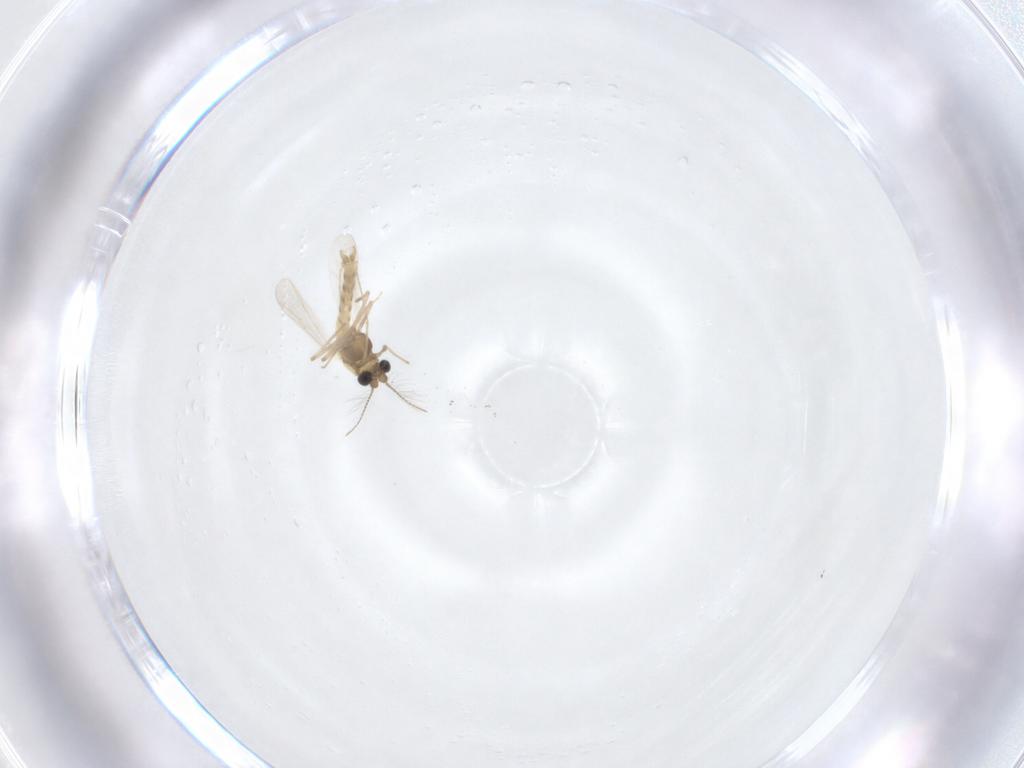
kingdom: Animalia
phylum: Arthropoda
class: Insecta
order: Diptera
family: Chironomidae
